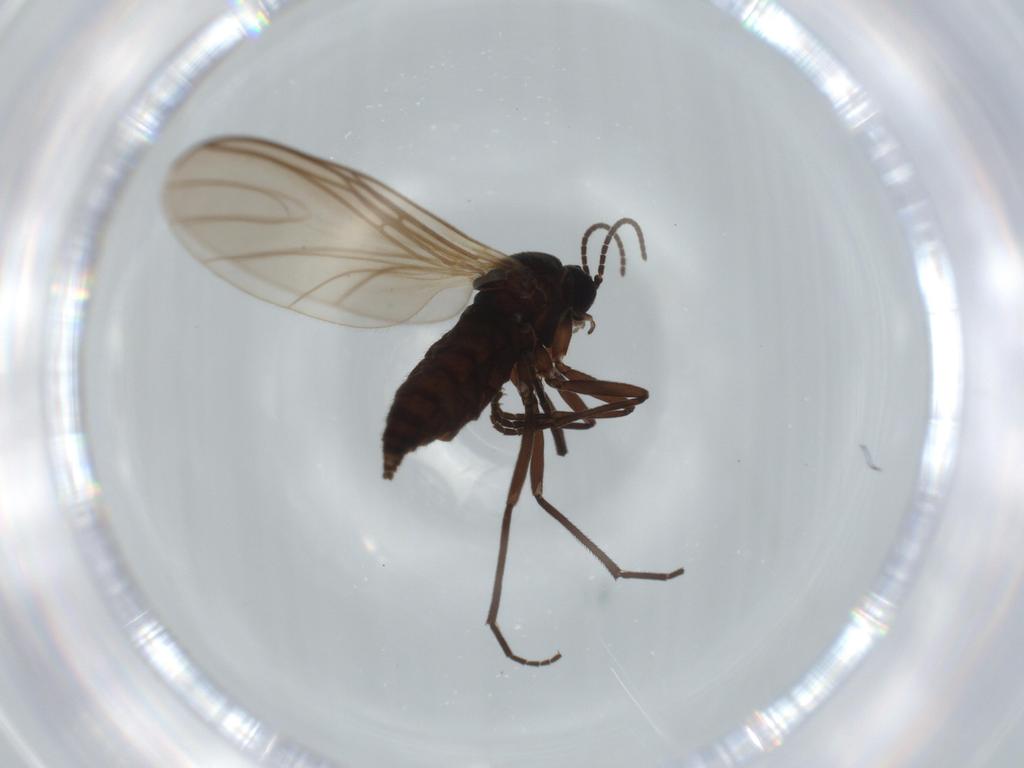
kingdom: Animalia
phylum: Arthropoda
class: Insecta
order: Diptera
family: Sciaridae
